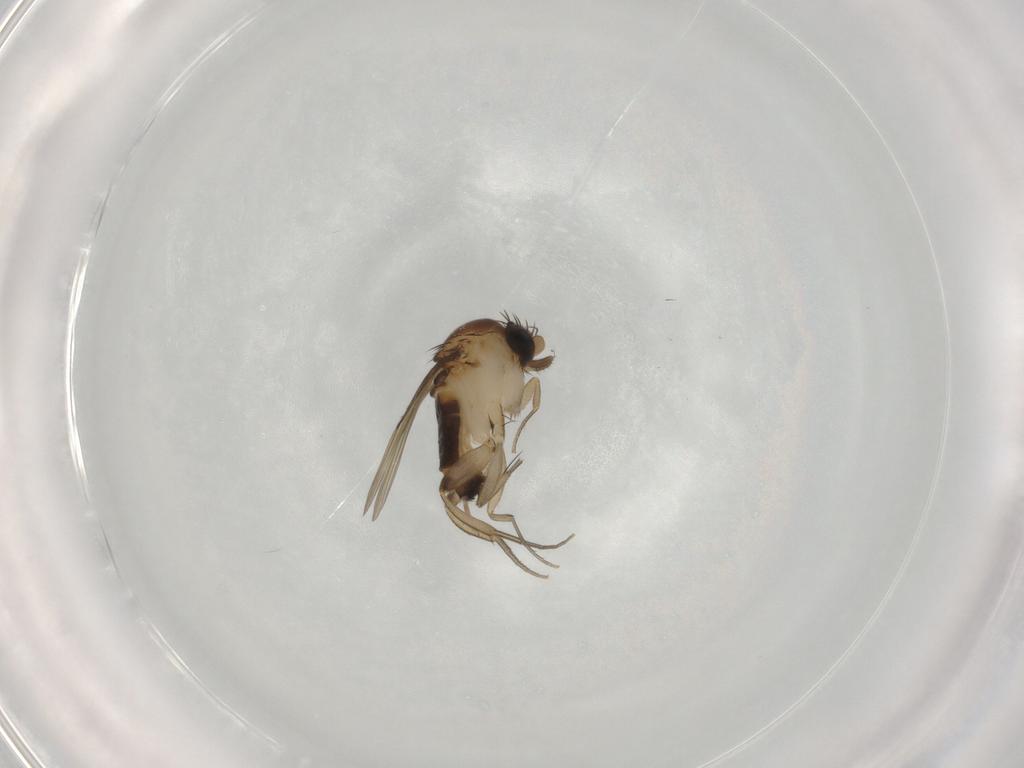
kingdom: Animalia
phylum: Arthropoda
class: Insecta
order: Diptera
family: Phoridae
